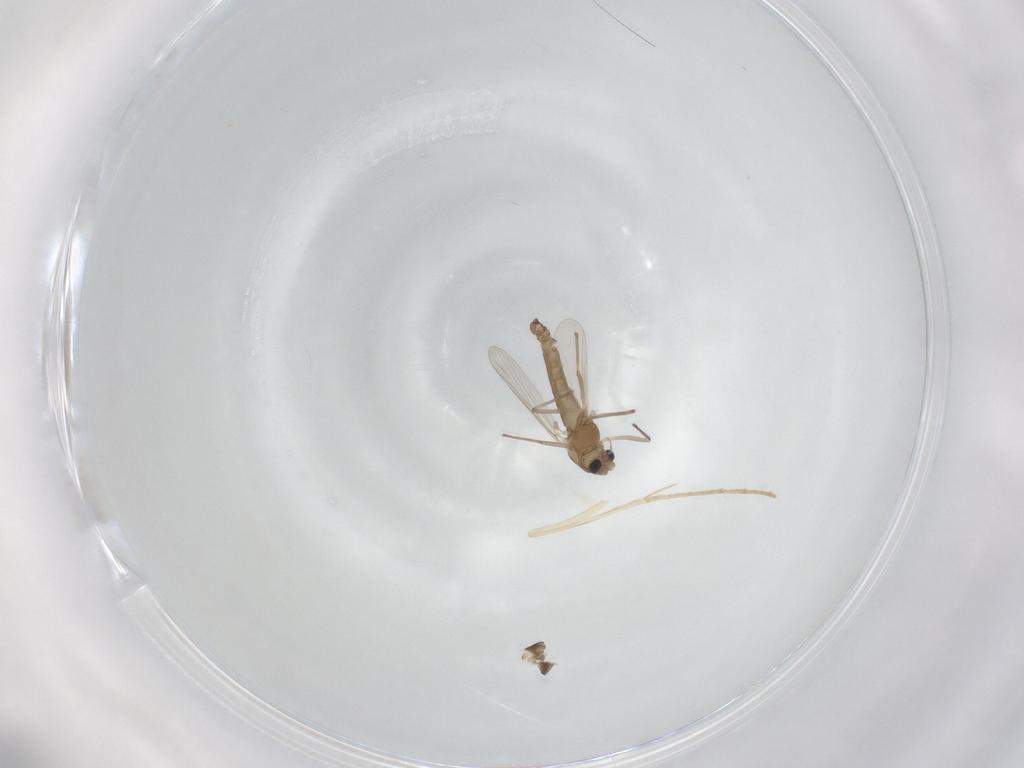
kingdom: Animalia
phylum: Arthropoda
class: Insecta
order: Diptera
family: Chironomidae
